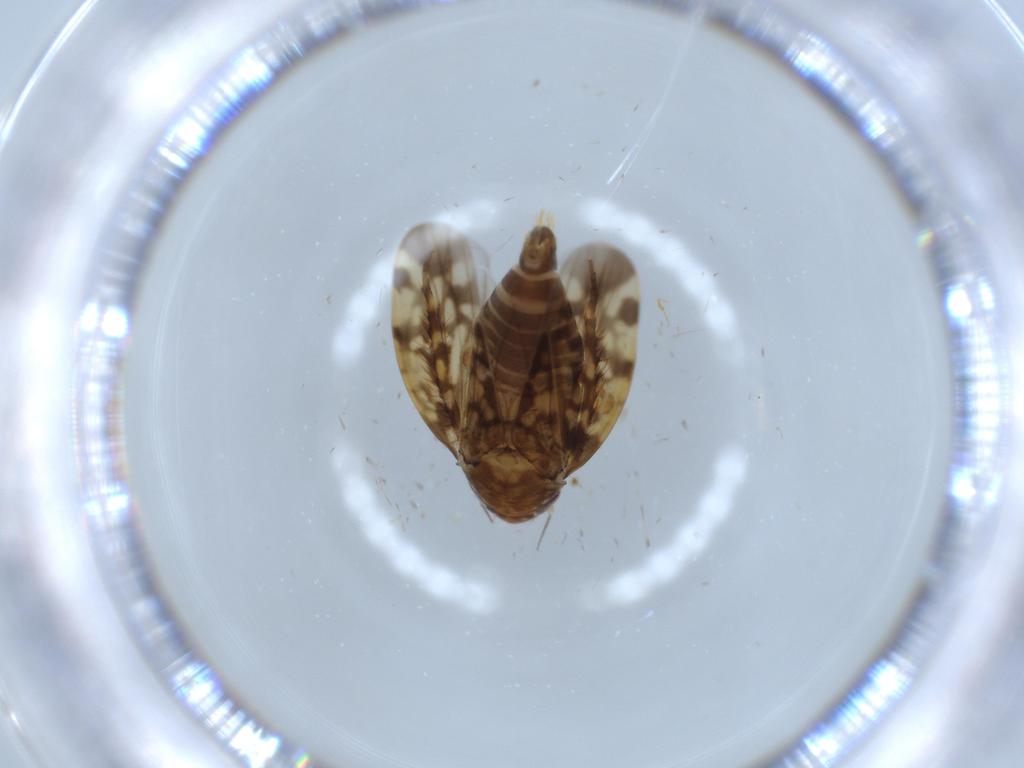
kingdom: Animalia
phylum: Arthropoda
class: Insecta
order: Hemiptera
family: Cicadellidae
